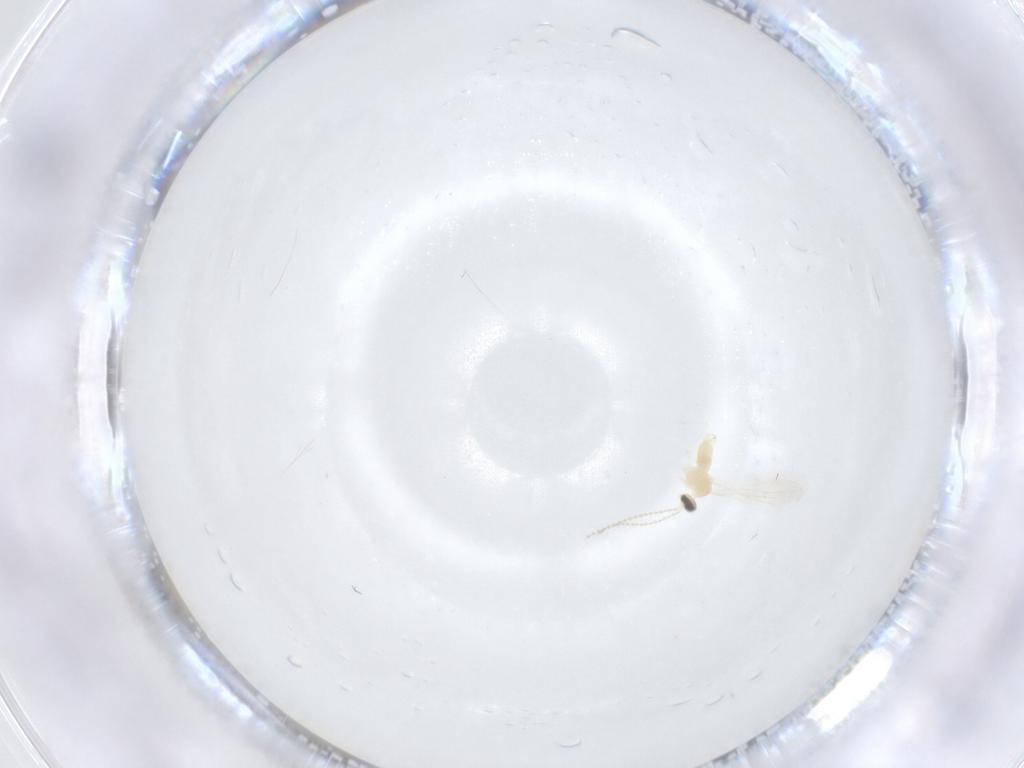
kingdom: Animalia
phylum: Arthropoda
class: Insecta
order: Diptera
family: Cecidomyiidae
